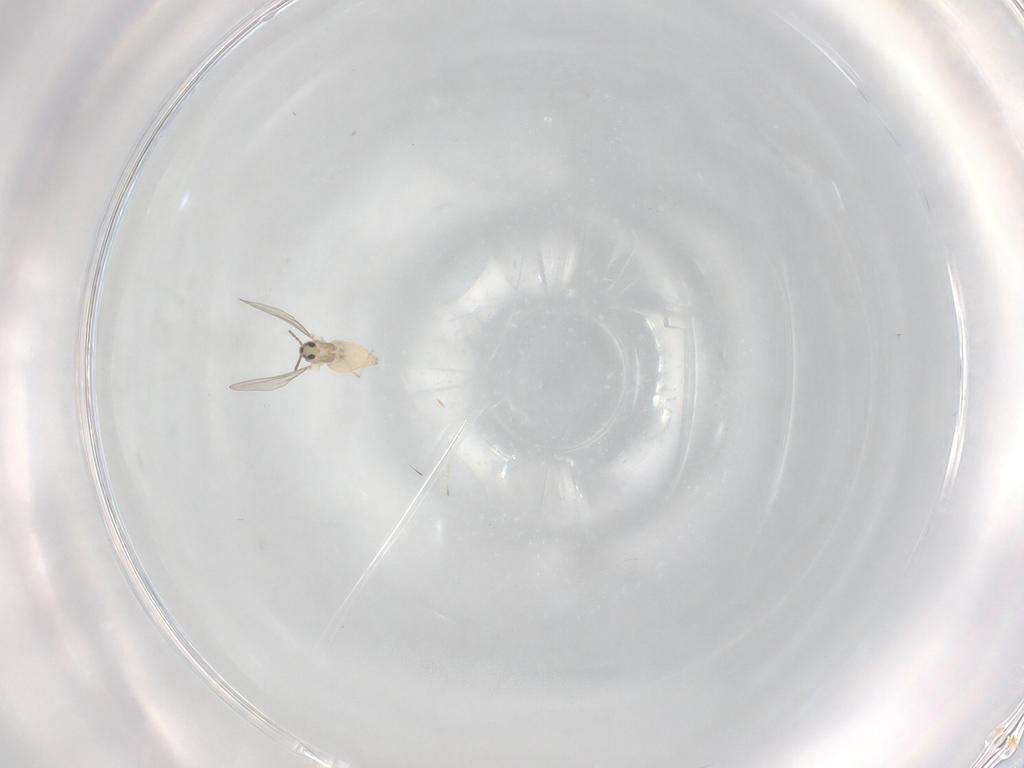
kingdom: Animalia
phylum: Arthropoda
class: Insecta
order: Diptera
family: Cecidomyiidae
